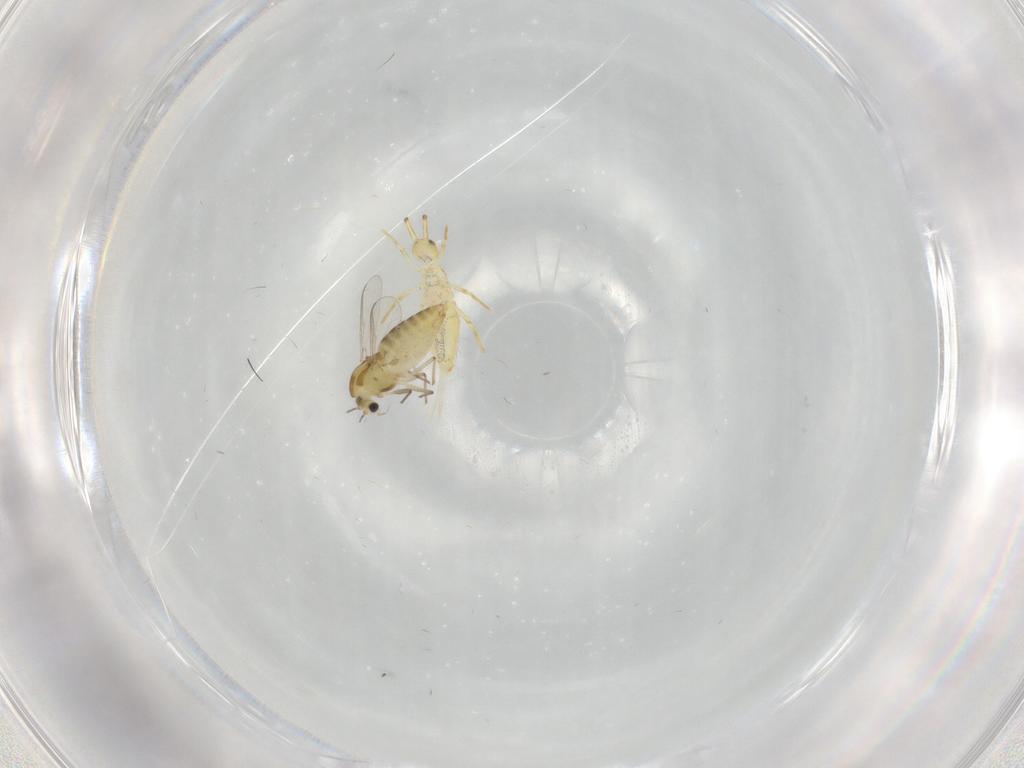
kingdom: Animalia
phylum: Arthropoda
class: Insecta
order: Diptera
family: Chironomidae
